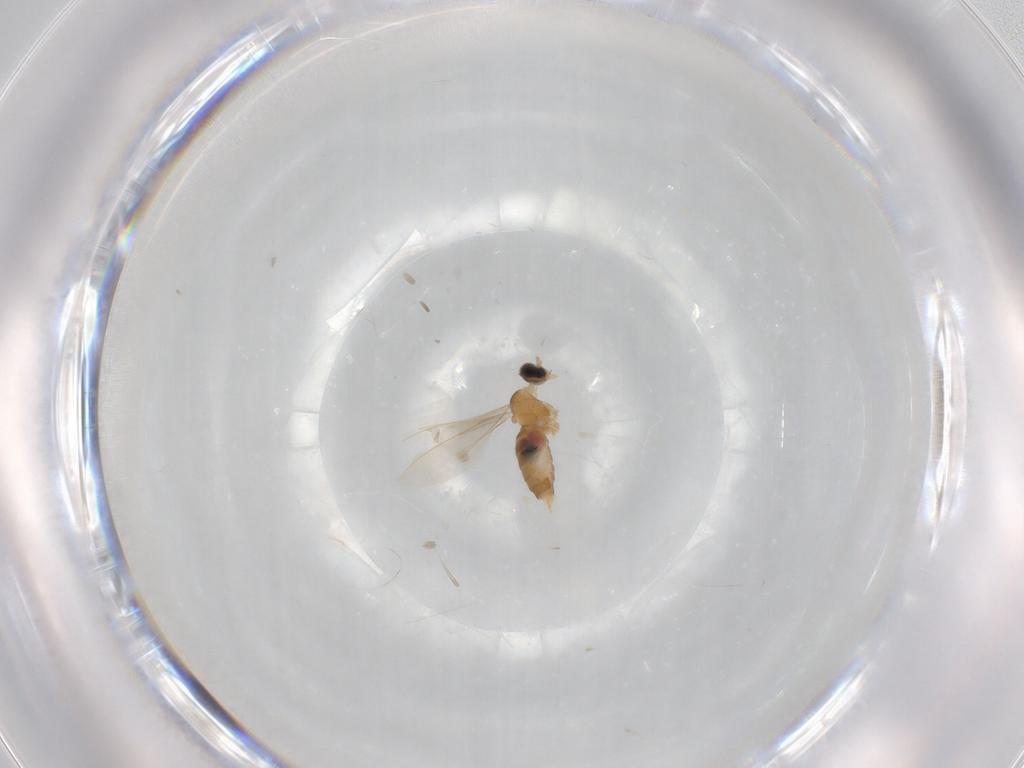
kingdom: Animalia
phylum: Arthropoda
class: Insecta
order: Diptera
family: Cecidomyiidae
